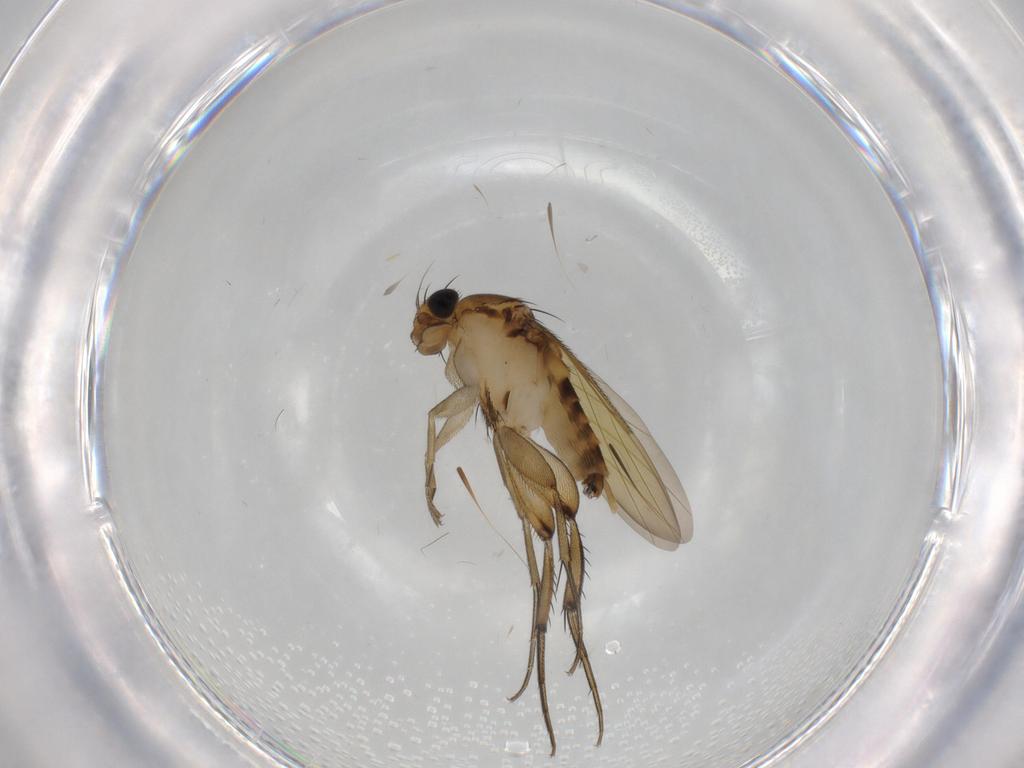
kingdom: Animalia
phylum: Arthropoda
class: Insecta
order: Diptera
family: Phoridae
